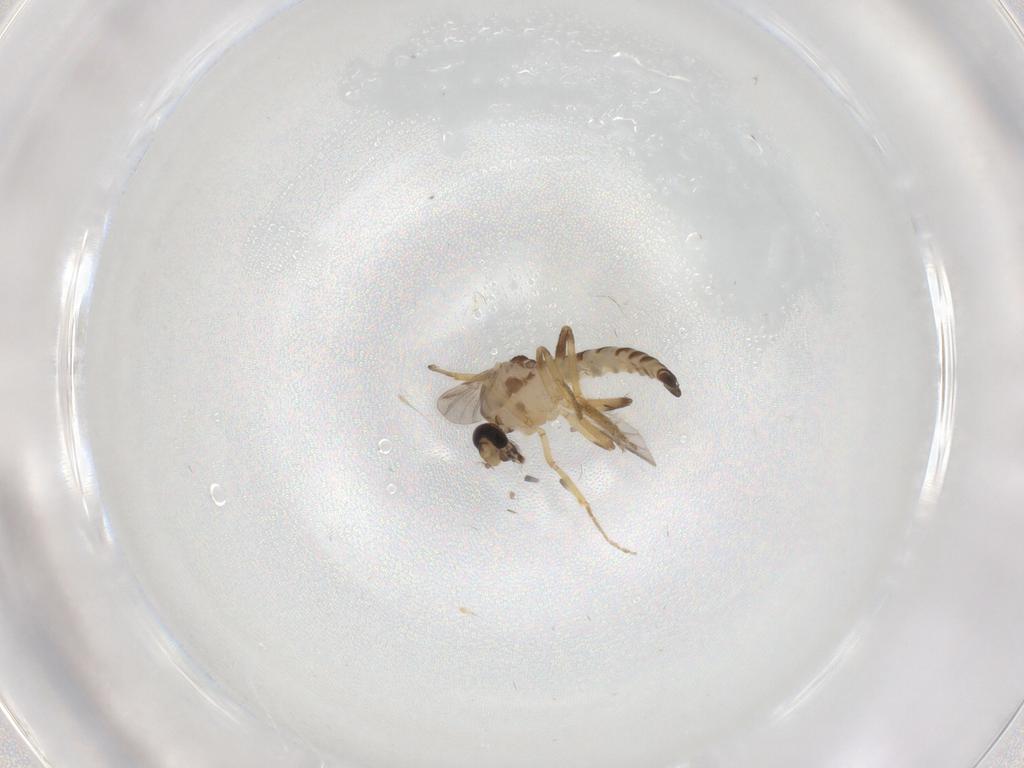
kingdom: Animalia
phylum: Arthropoda
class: Insecta
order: Diptera
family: Ceratopogonidae
